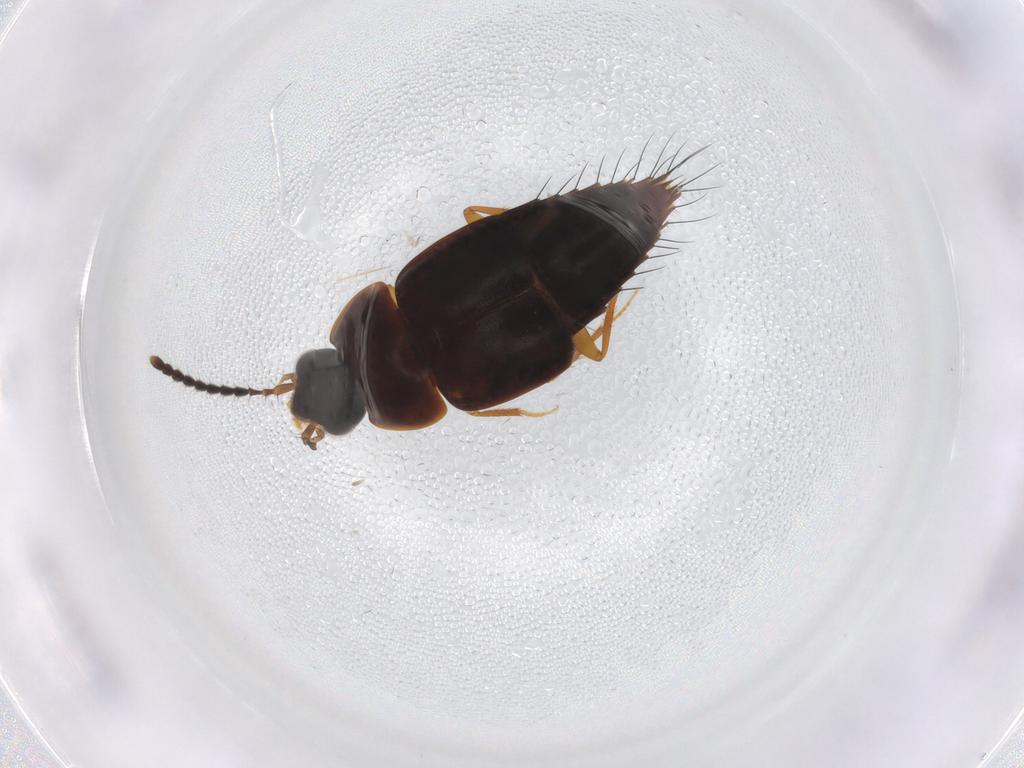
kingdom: Animalia
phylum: Arthropoda
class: Insecta
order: Coleoptera
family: Staphylinidae
